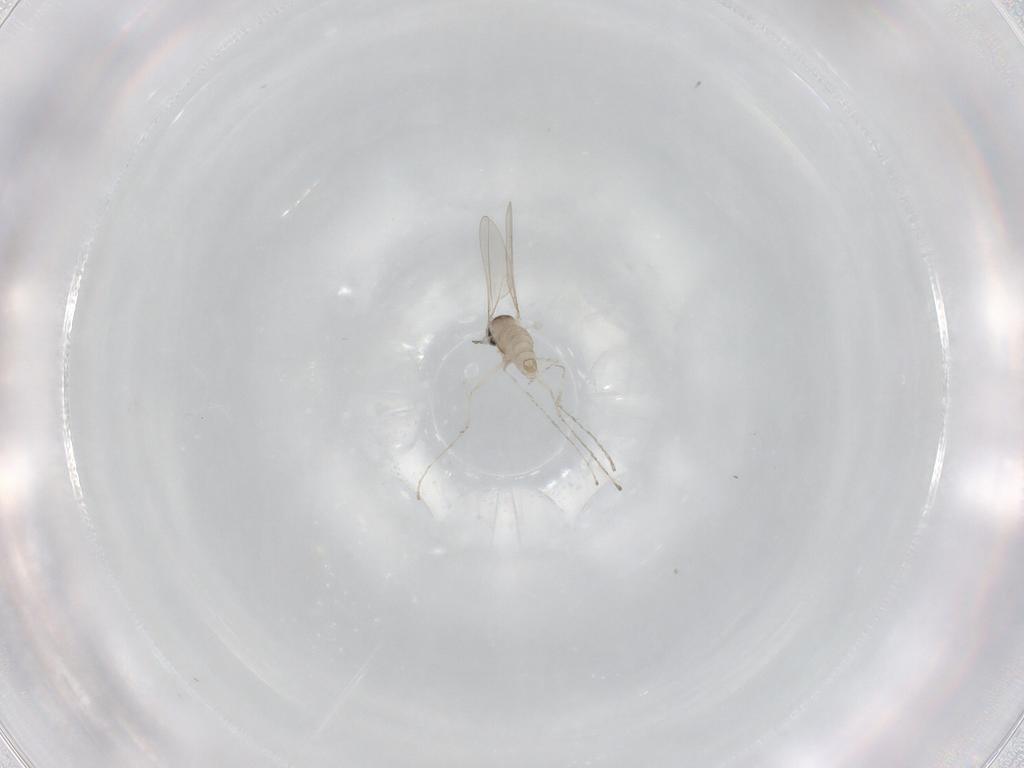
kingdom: Animalia
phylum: Arthropoda
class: Insecta
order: Diptera
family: Cecidomyiidae
